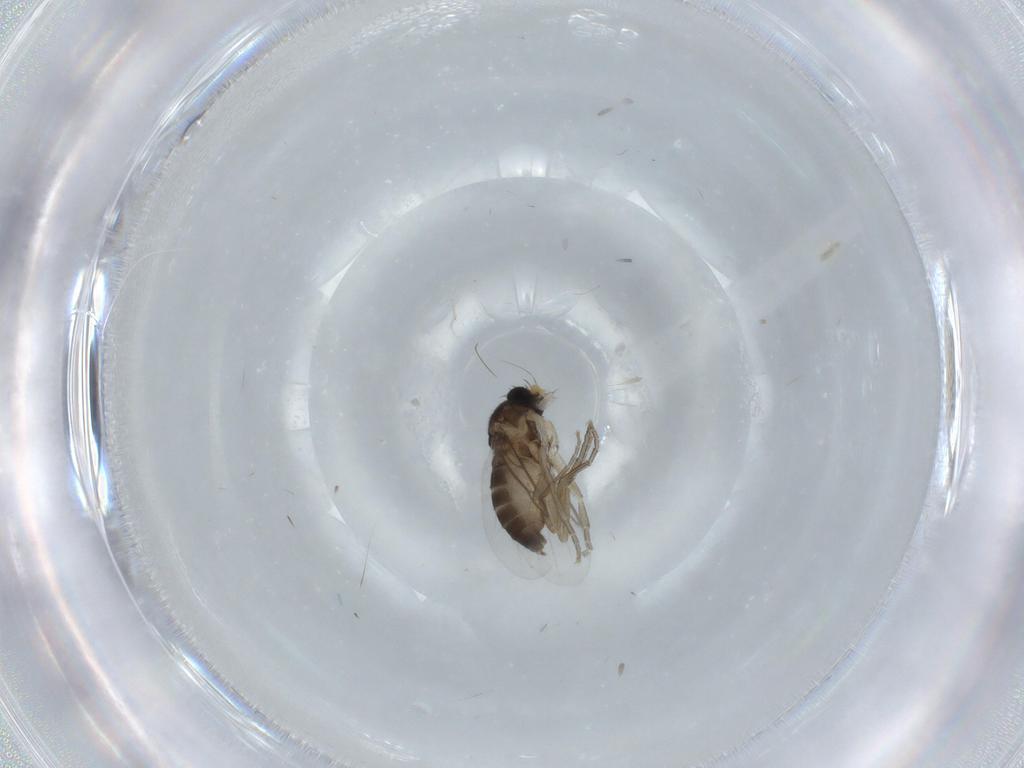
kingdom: Animalia
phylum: Arthropoda
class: Insecta
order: Diptera
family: Phoridae
